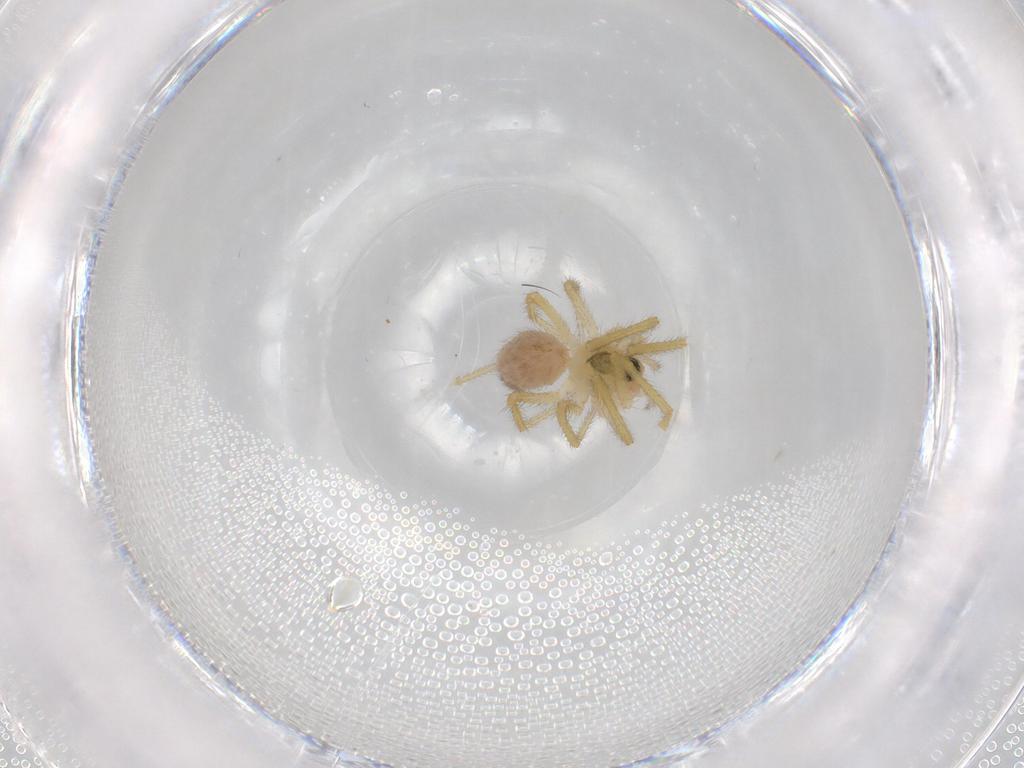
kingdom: Animalia
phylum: Arthropoda
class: Arachnida
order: Araneae
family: Linyphiidae
